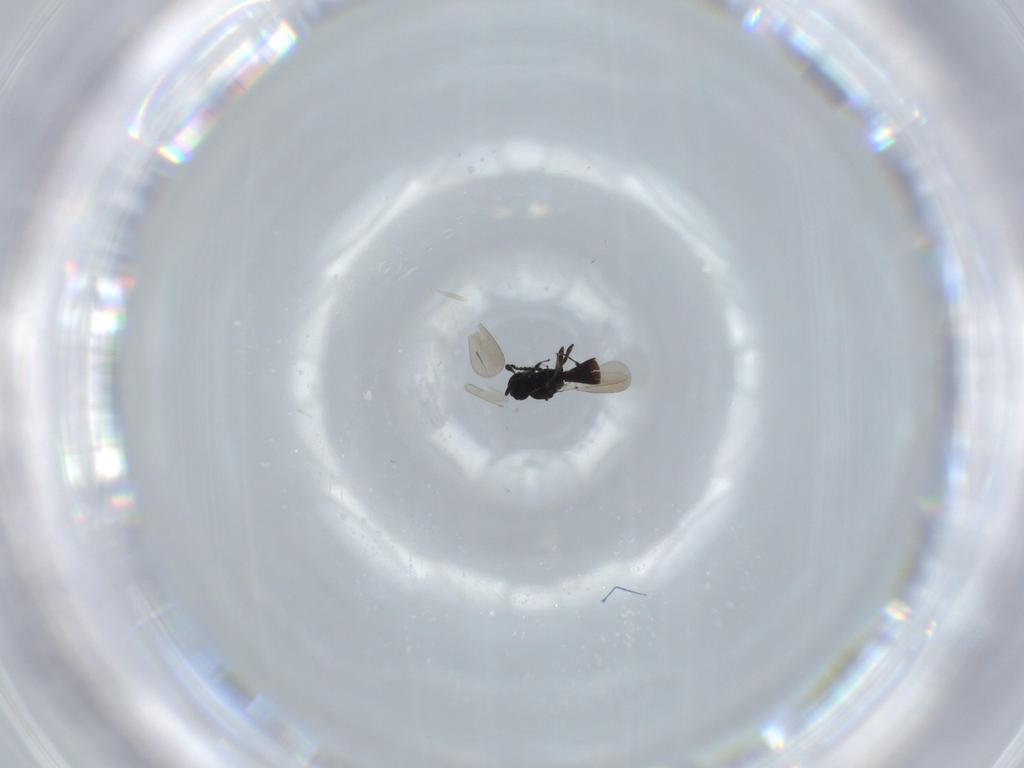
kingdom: Animalia
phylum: Arthropoda
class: Insecta
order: Hymenoptera
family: Platygastridae
